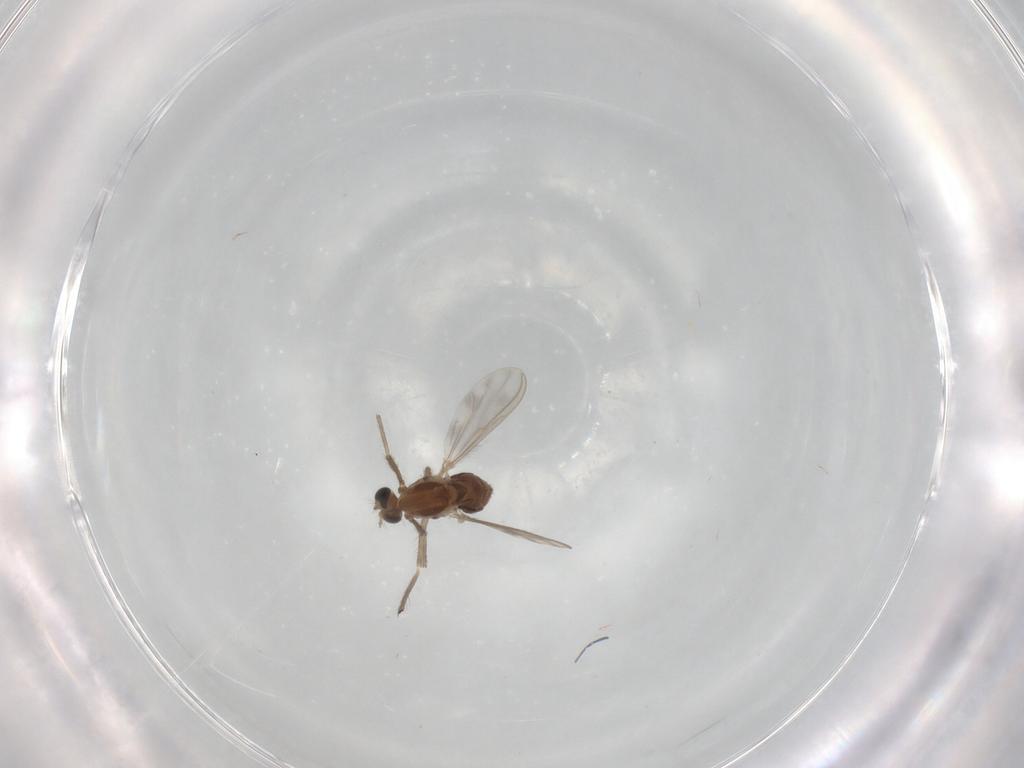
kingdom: Animalia
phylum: Arthropoda
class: Insecta
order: Diptera
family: Chironomidae
